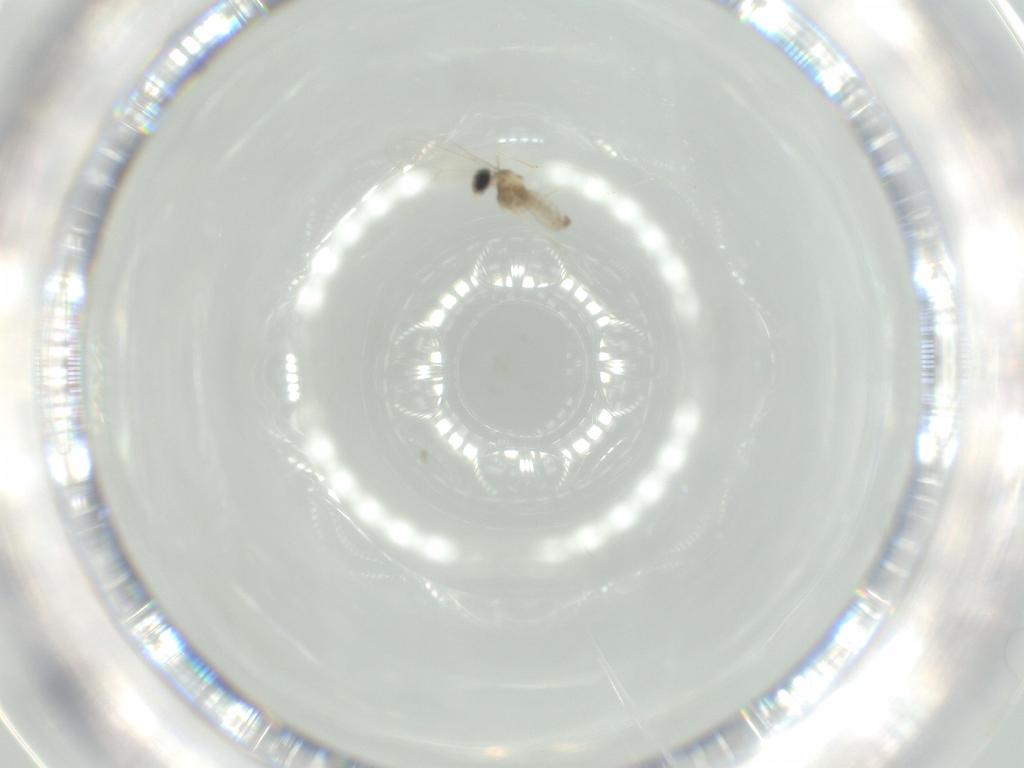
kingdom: Animalia
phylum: Arthropoda
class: Insecta
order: Diptera
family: Cecidomyiidae
